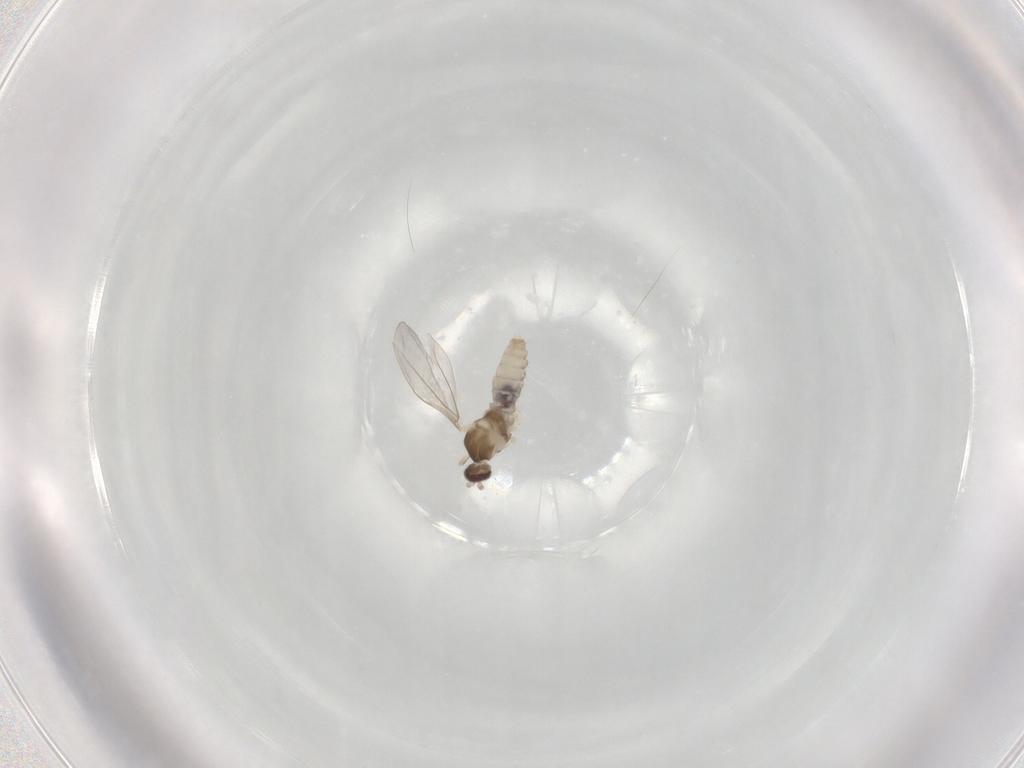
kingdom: Animalia
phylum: Arthropoda
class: Insecta
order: Diptera
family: Cecidomyiidae
